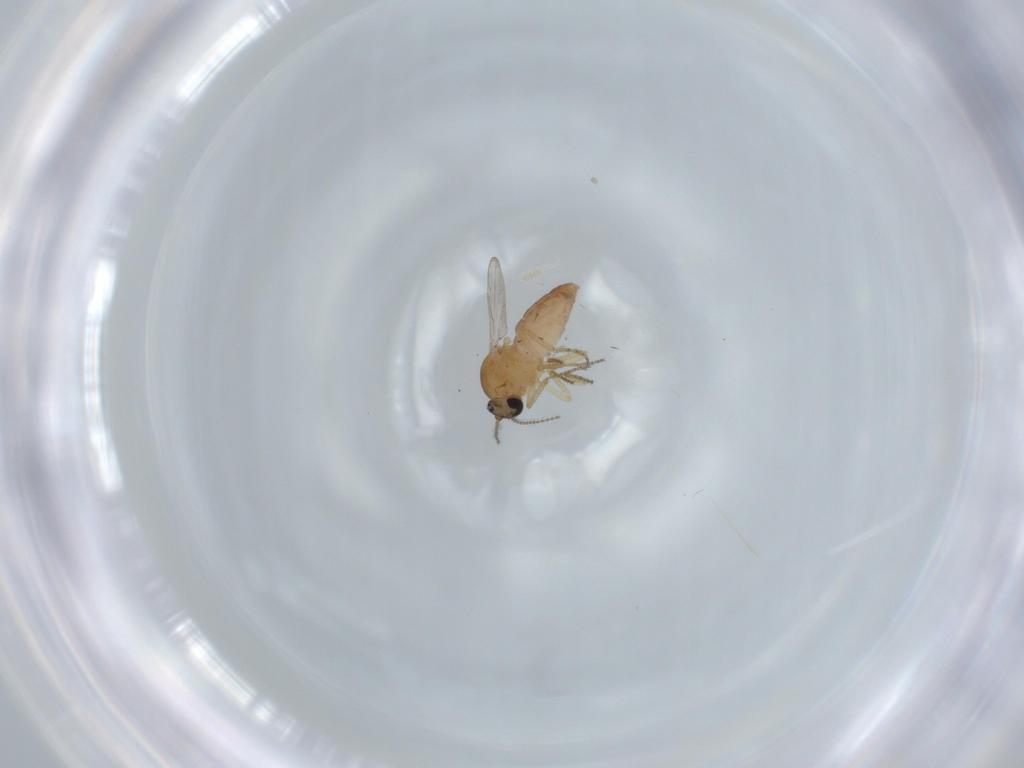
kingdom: Animalia
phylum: Arthropoda
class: Insecta
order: Diptera
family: Ceratopogonidae
